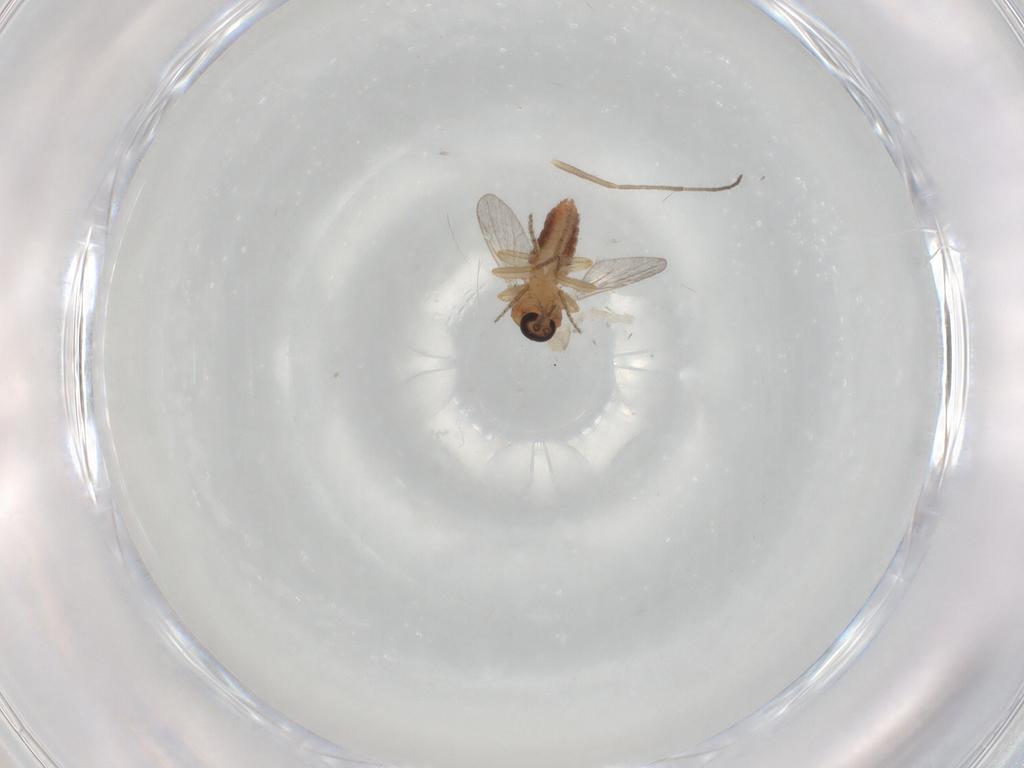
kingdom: Animalia
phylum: Arthropoda
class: Insecta
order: Diptera
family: Ceratopogonidae
